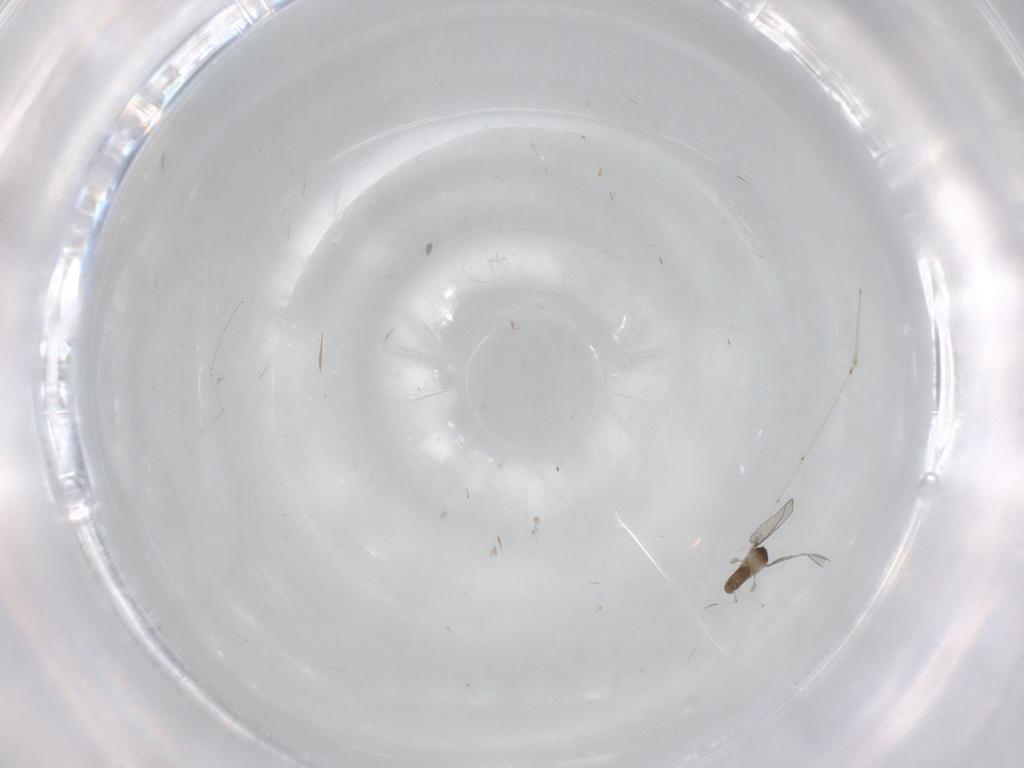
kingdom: Animalia
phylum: Arthropoda
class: Insecta
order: Diptera
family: Cecidomyiidae
